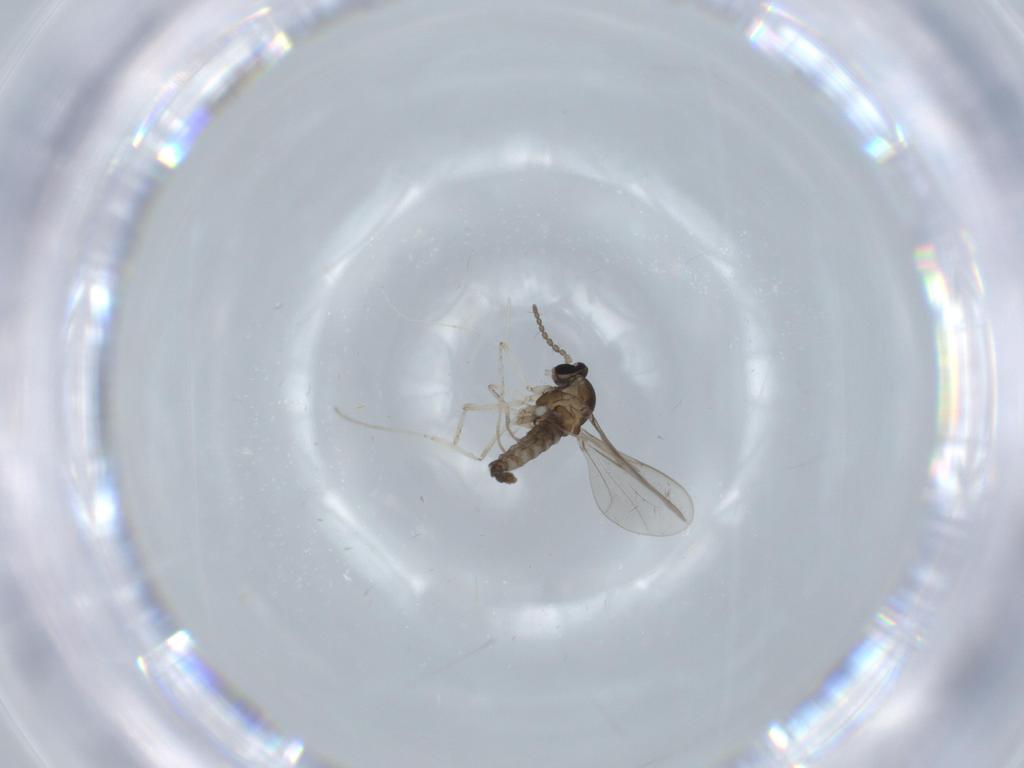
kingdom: Animalia
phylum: Arthropoda
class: Insecta
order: Diptera
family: Cecidomyiidae
